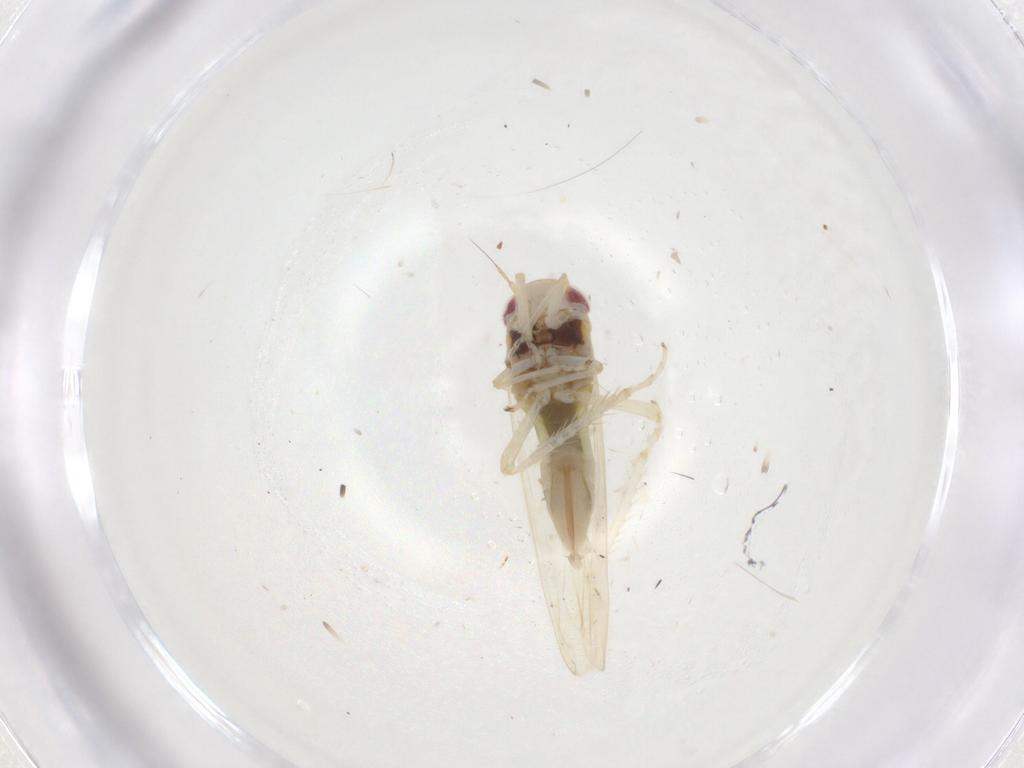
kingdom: Animalia
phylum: Arthropoda
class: Insecta
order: Hemiptera
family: Cicadellidae
